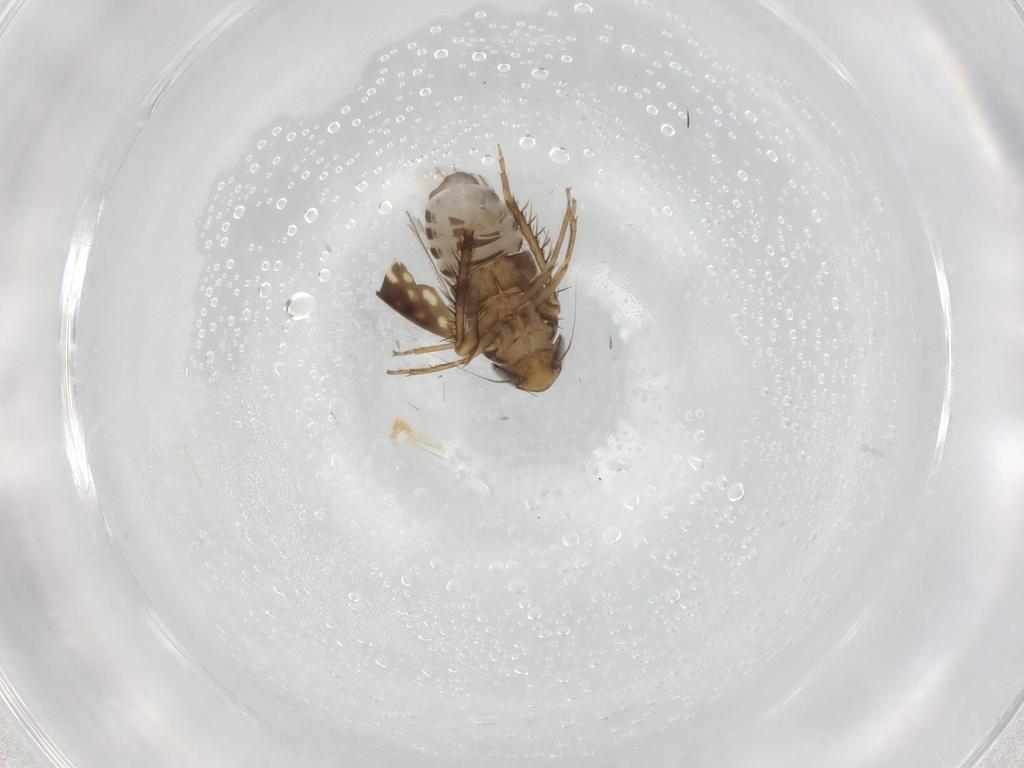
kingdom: Animalia
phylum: Arthropoda
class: Insecta
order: Hemiptera
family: Cicadellidae
